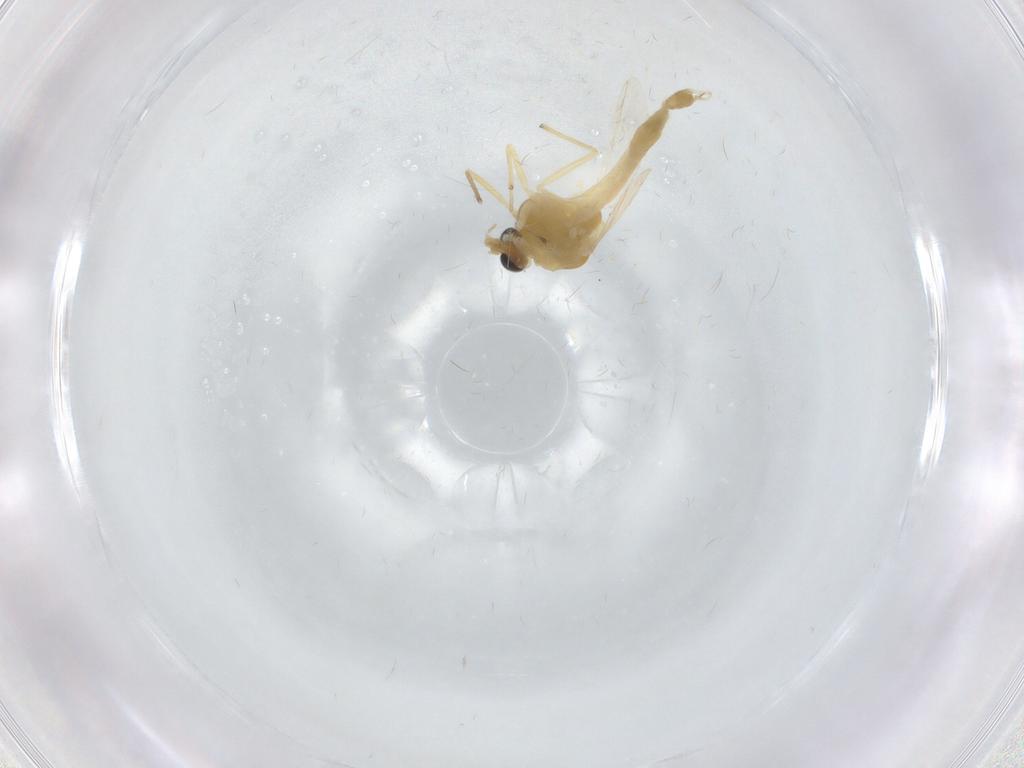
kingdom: Animalia
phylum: Arthropoda
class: Insecta
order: Diptera
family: Chironomidae
